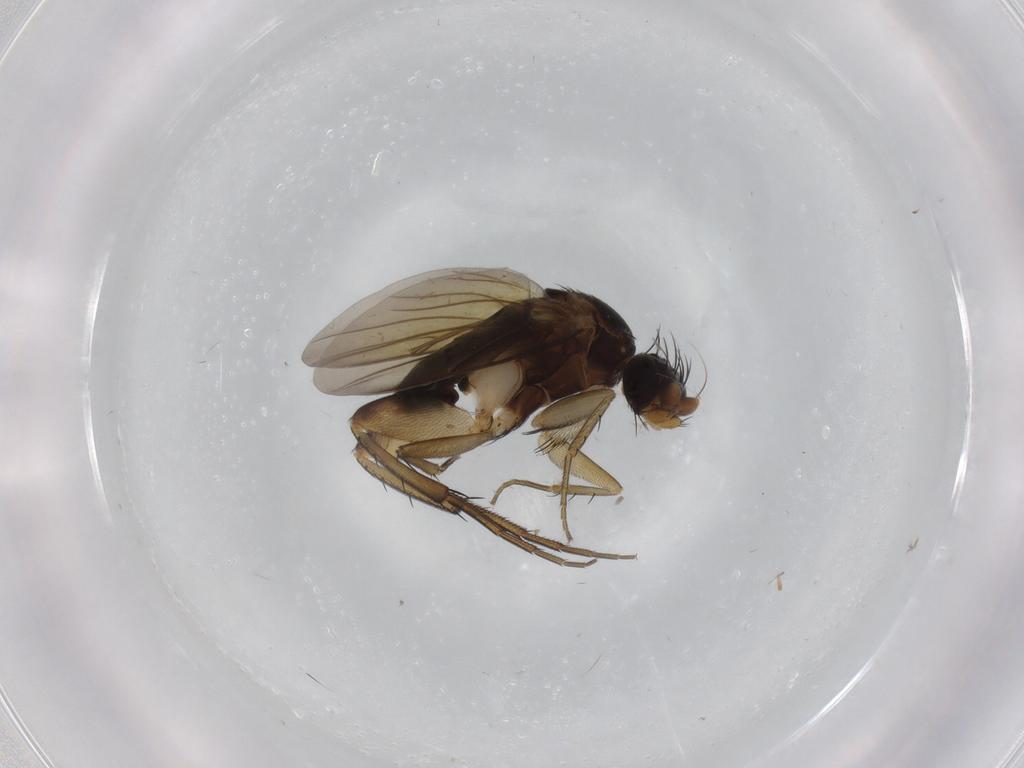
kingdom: Animalia
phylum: Arthropoda
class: Insecta
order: Diptera
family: Phoridae
